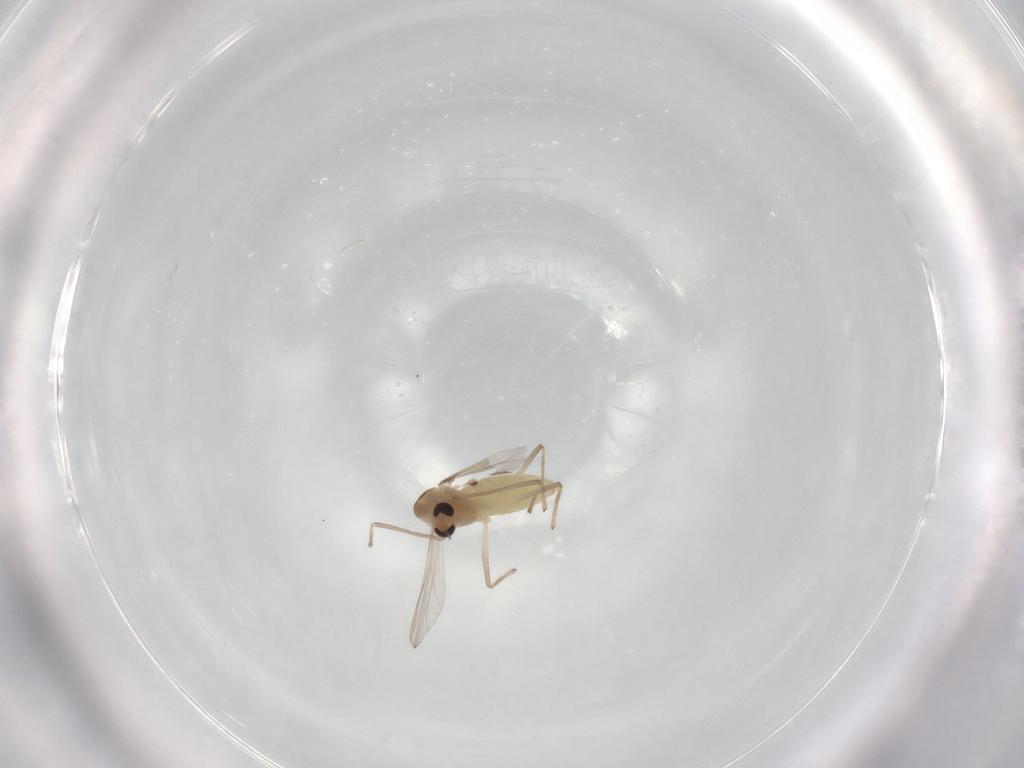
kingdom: Animalia
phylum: Arthropoda
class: Insecta
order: Diptera
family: Chironomidae
